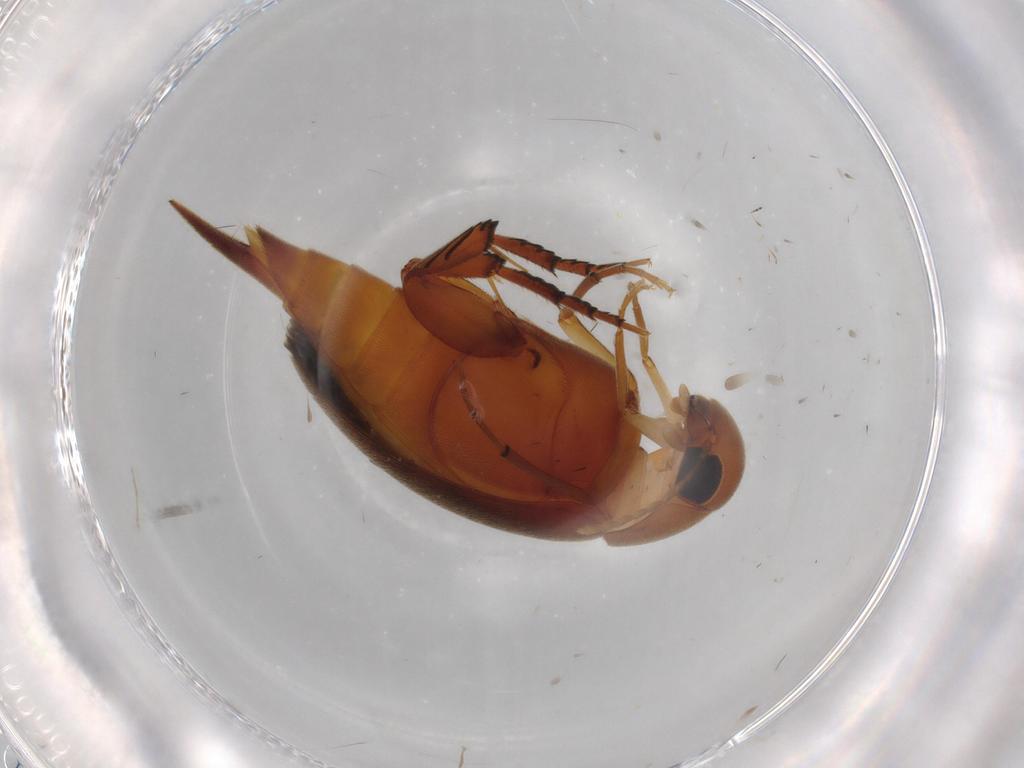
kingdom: Animalia
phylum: Arthropoda
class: Insecta
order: Coleoptera
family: Mordellidae
